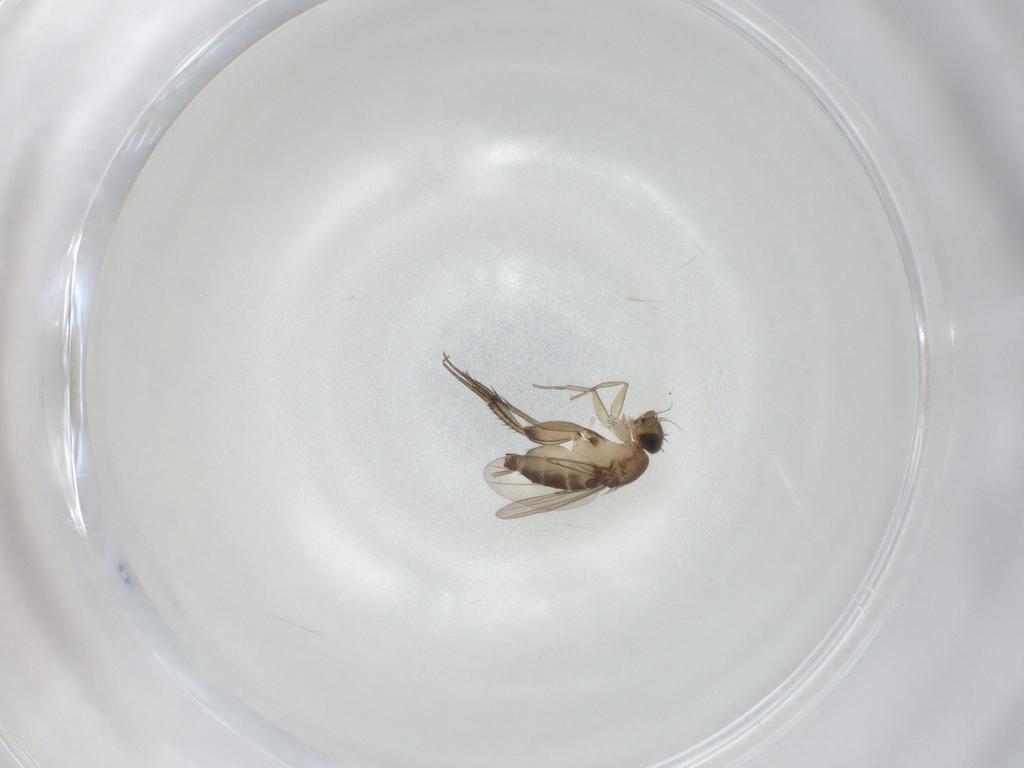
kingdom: Animalia
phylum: Arthropoda
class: Insecta
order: Diptera
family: Phoridae
